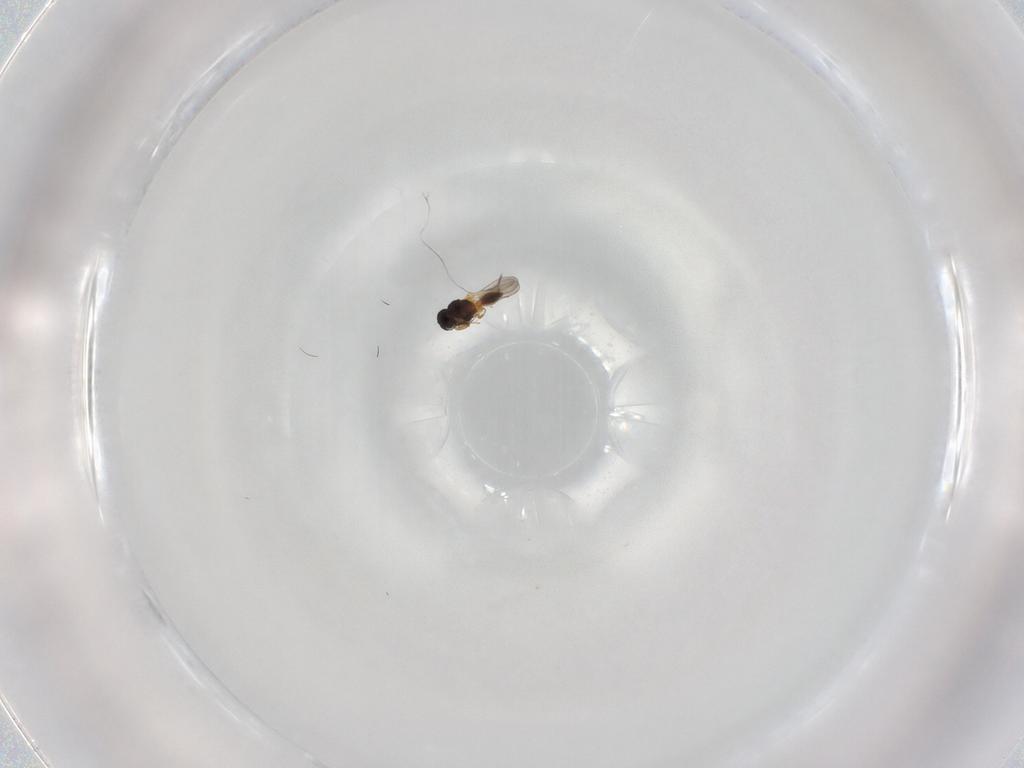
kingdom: Animalia
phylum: Arthropoda
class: Insecta
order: Hymenoptera
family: Platygastridae
